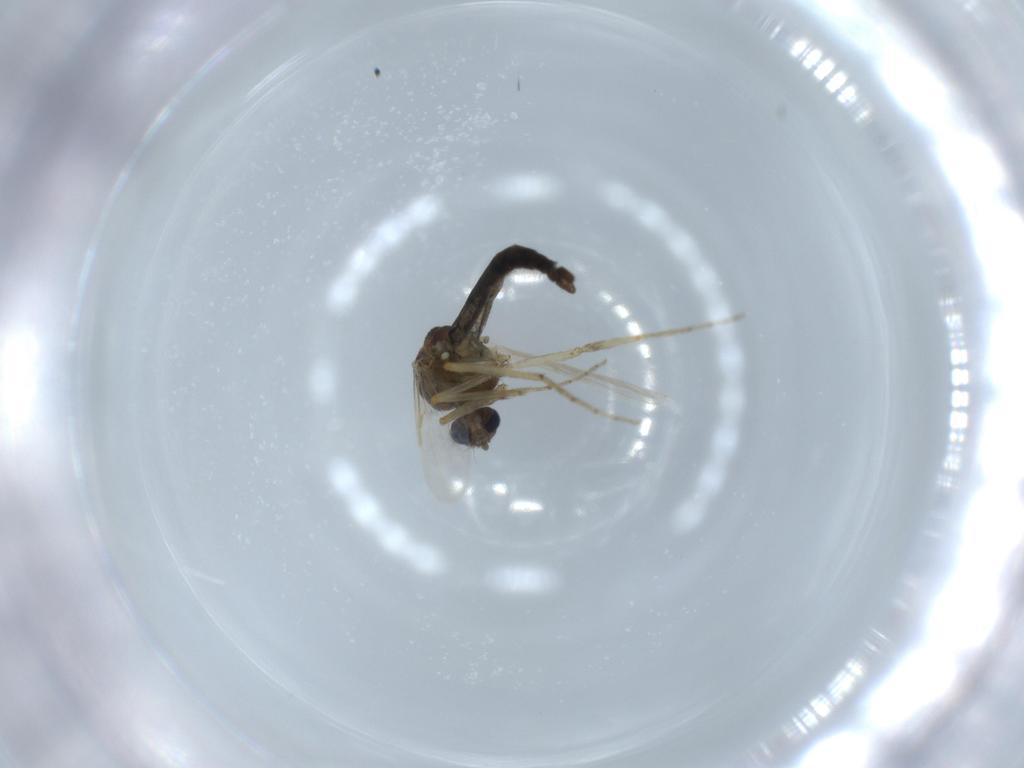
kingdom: Animalia
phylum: Arthropoda
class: Insecta
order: Diptera
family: Ceratopogonidae
